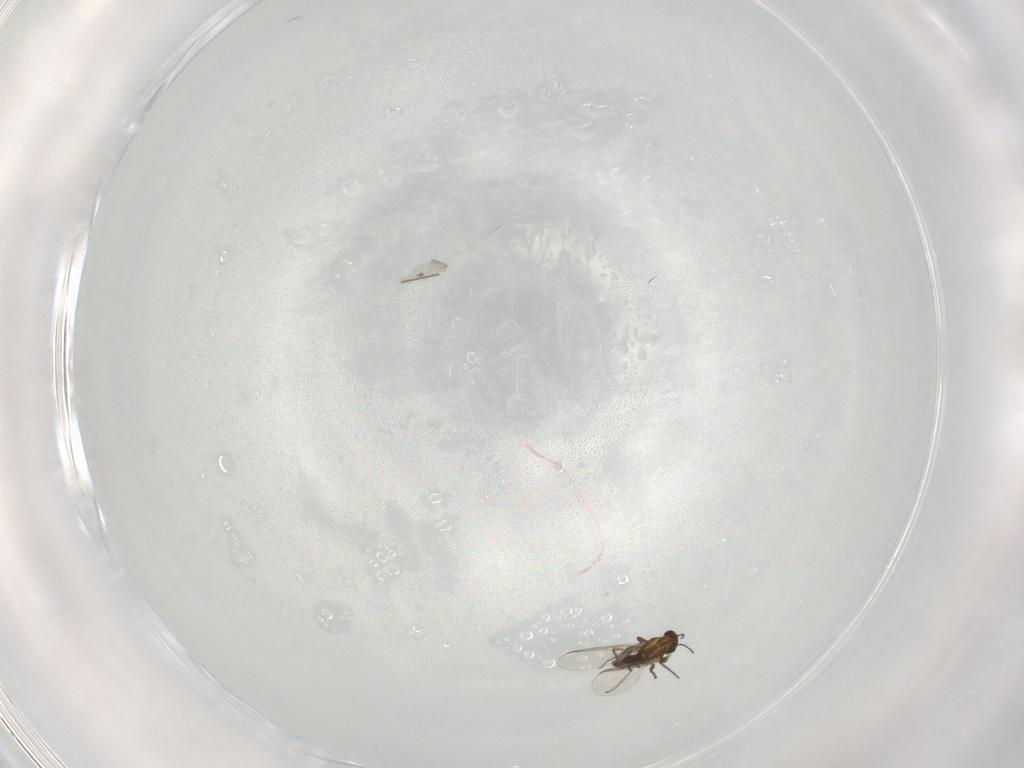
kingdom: Animalia
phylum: Arthropoda
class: Insecta
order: Diptera
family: Chironomidae
